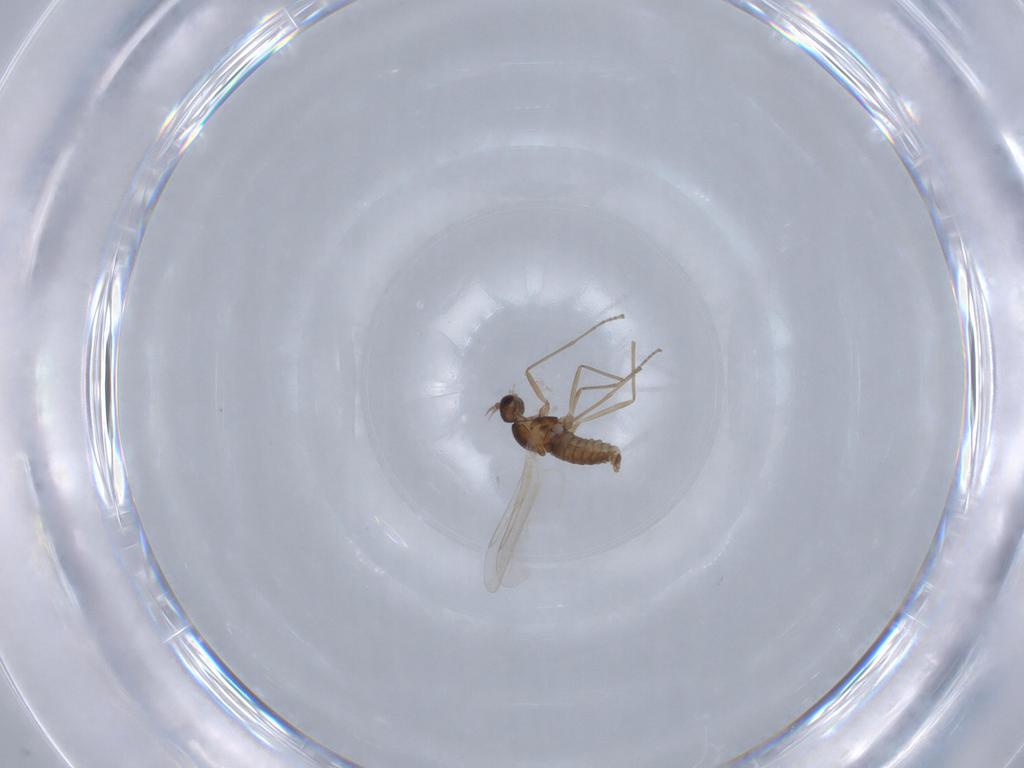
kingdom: Animalia
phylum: Arthropoda
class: Insecta
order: Diptera
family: Cecidomyiidae
